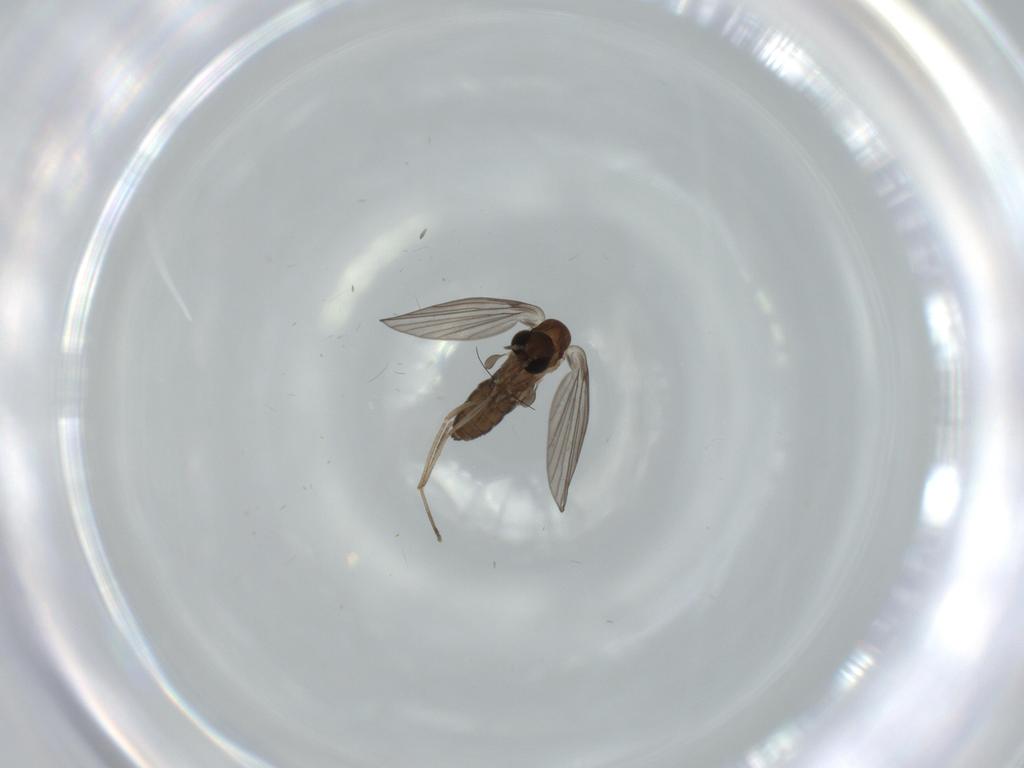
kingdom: Animalia
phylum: Arthropoda
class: Insecta
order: Diptera
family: Psychodidae
